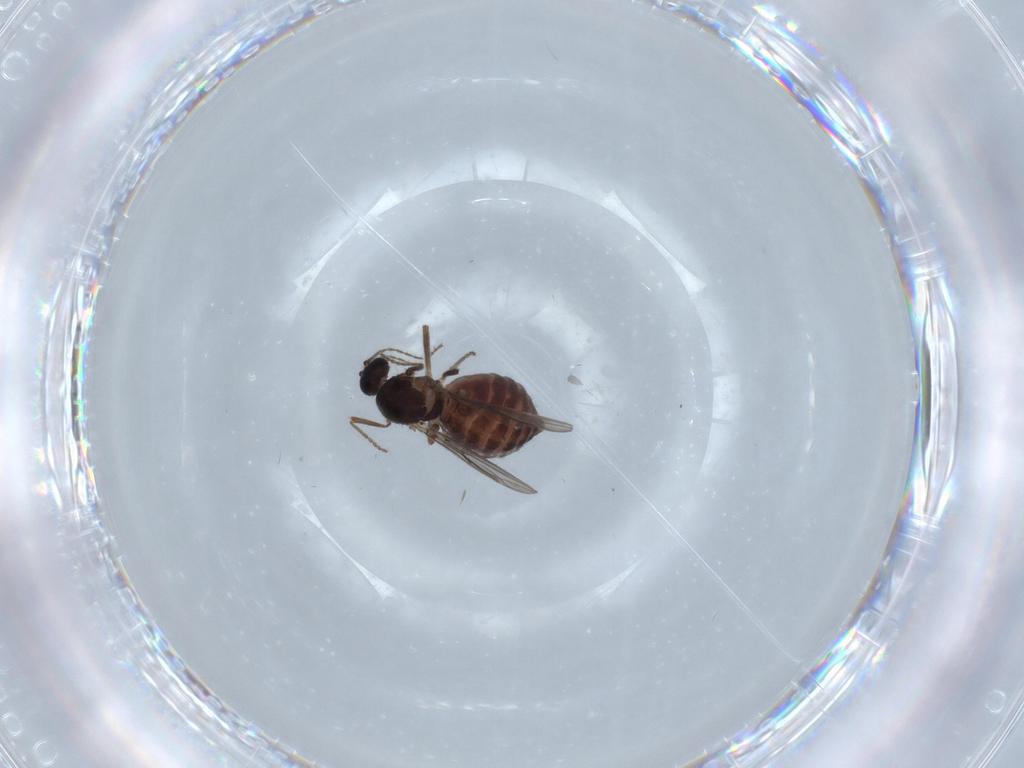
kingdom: Animalia
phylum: Arthropoda
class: Insecta
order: Diptera
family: Ceratopogonidae
